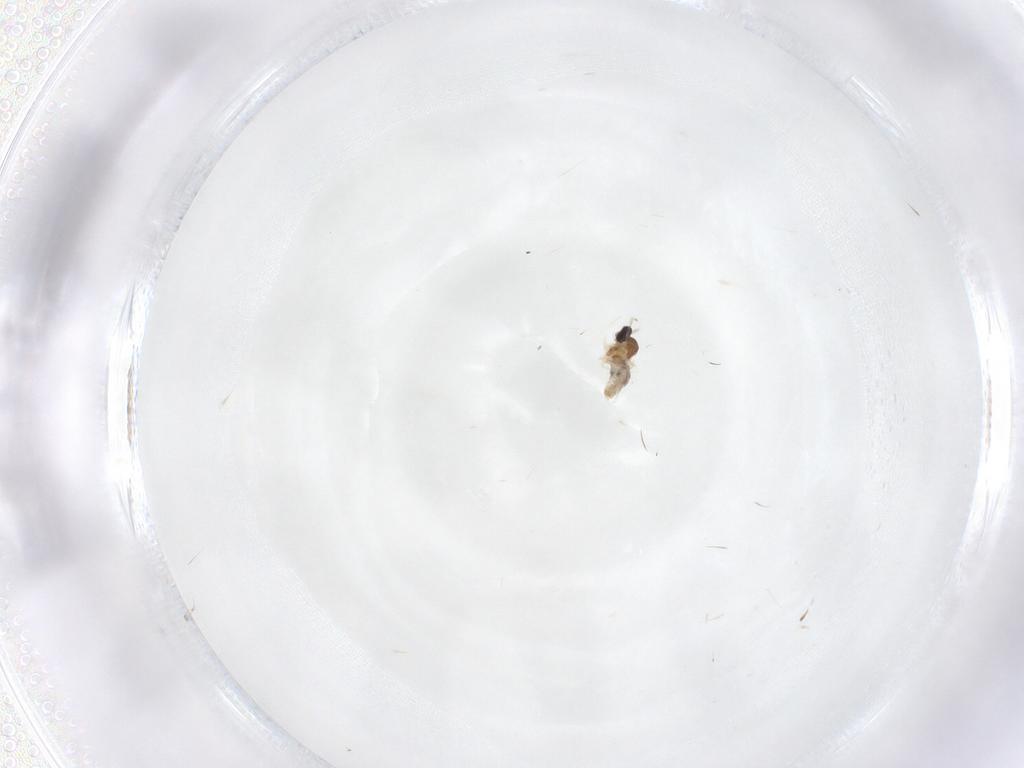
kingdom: Animalia
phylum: Arthropoda
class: Insecta
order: Diptera
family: Cecidomyiidae
